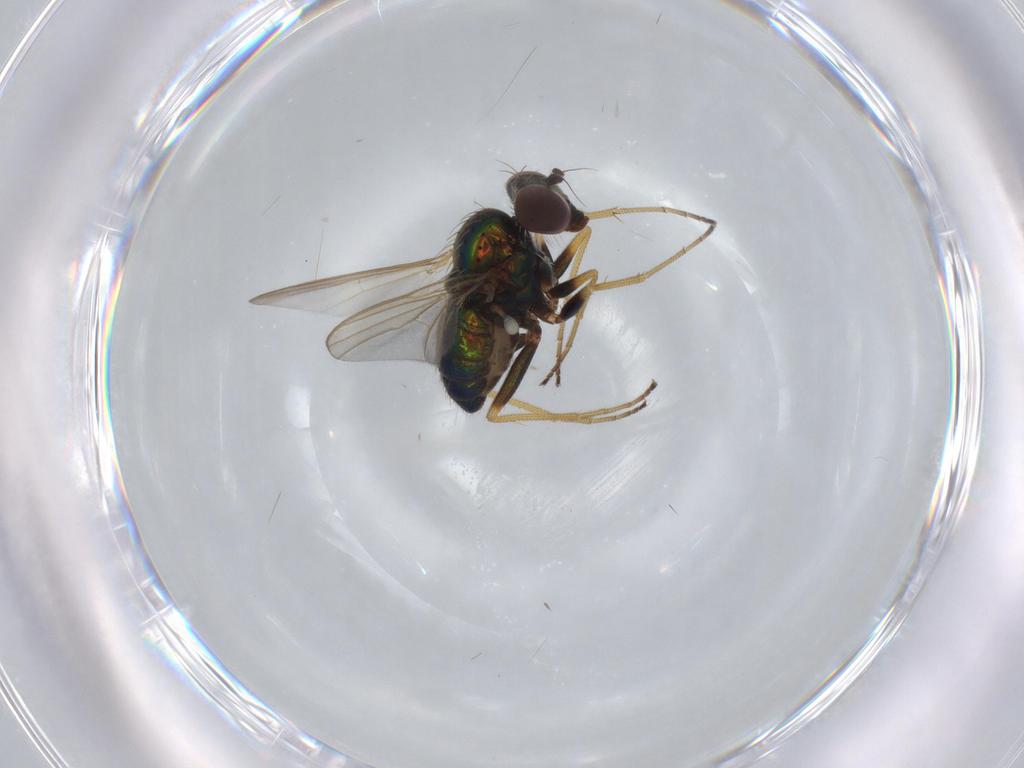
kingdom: Animalia
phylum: Arthropoda
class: Insecta
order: Diptera
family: Dolichopodidae
